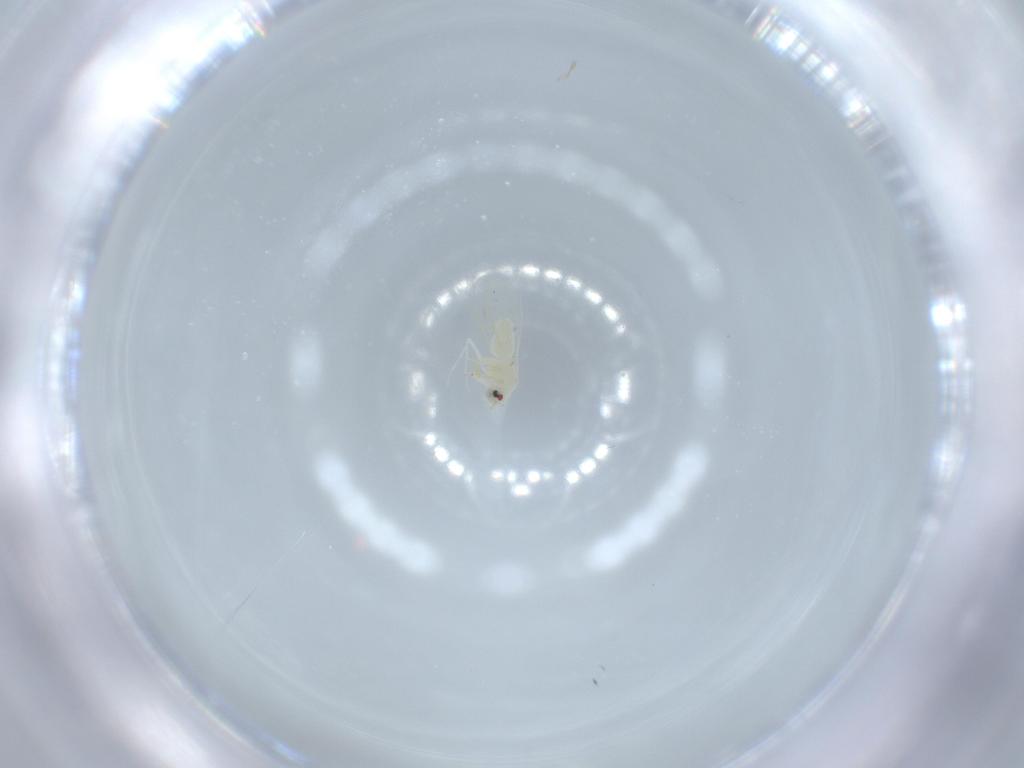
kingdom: Animalia
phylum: Arthropoda
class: Insecta
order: Hemiptera
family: Aleyrodidae
